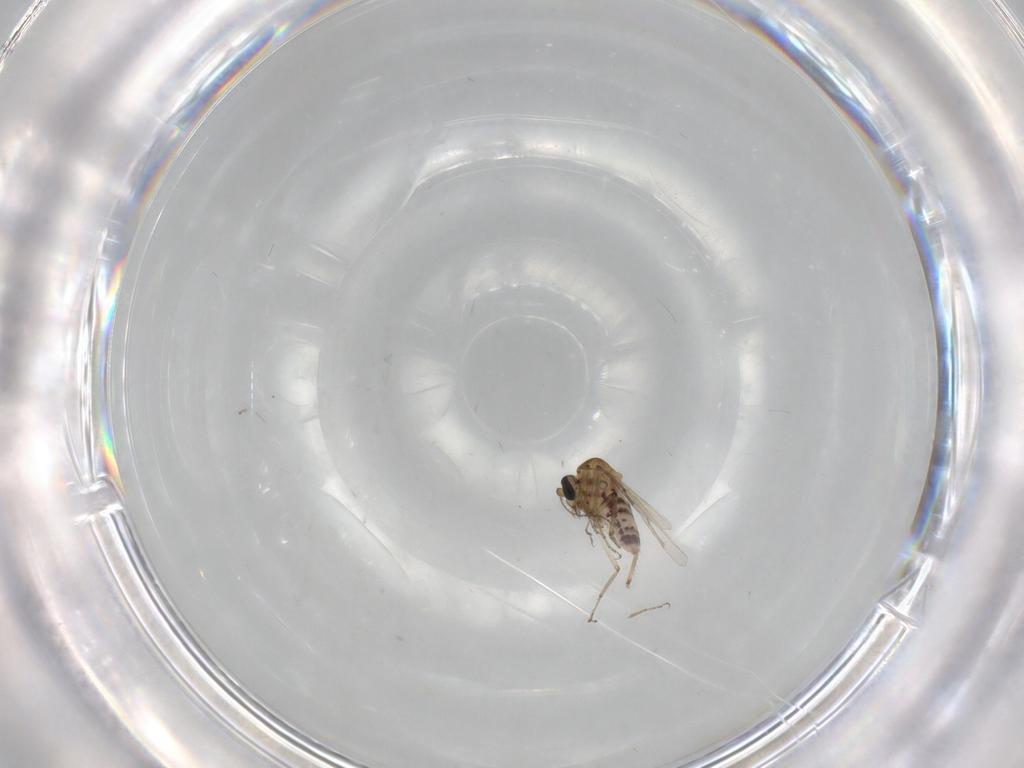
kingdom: Animalia
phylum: Arthropoda
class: Insecta
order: Diptera
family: Ceratopogonidae
